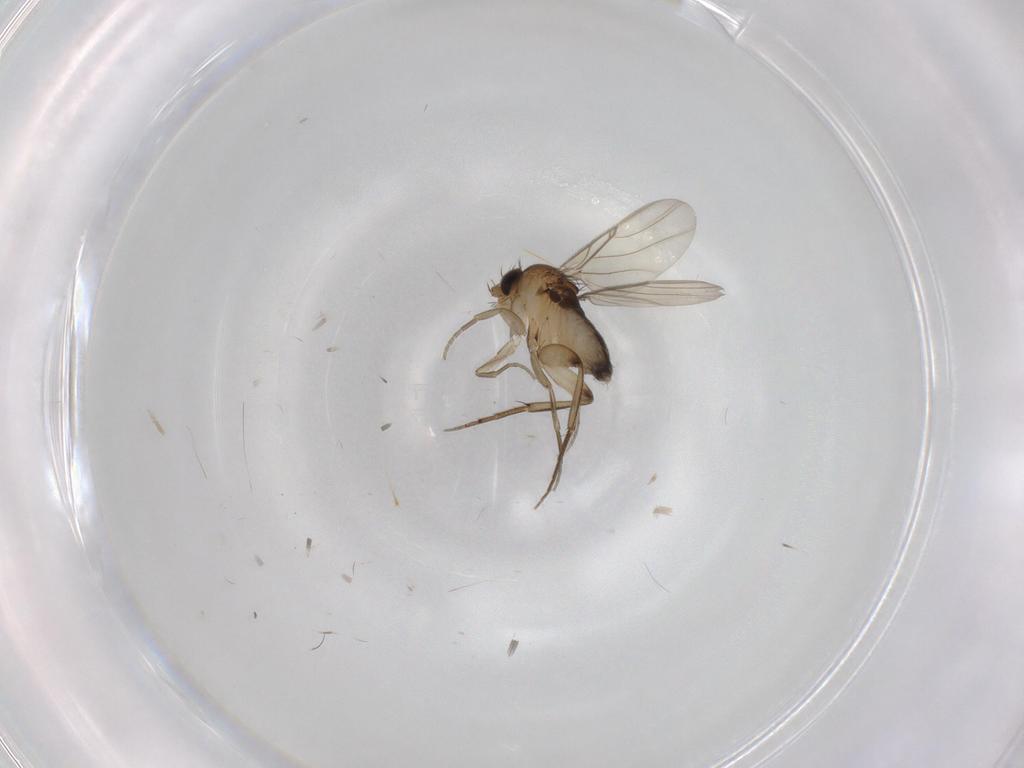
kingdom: Animalia
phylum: Arthropoda
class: Insecta
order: Diptera
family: Phoridae
